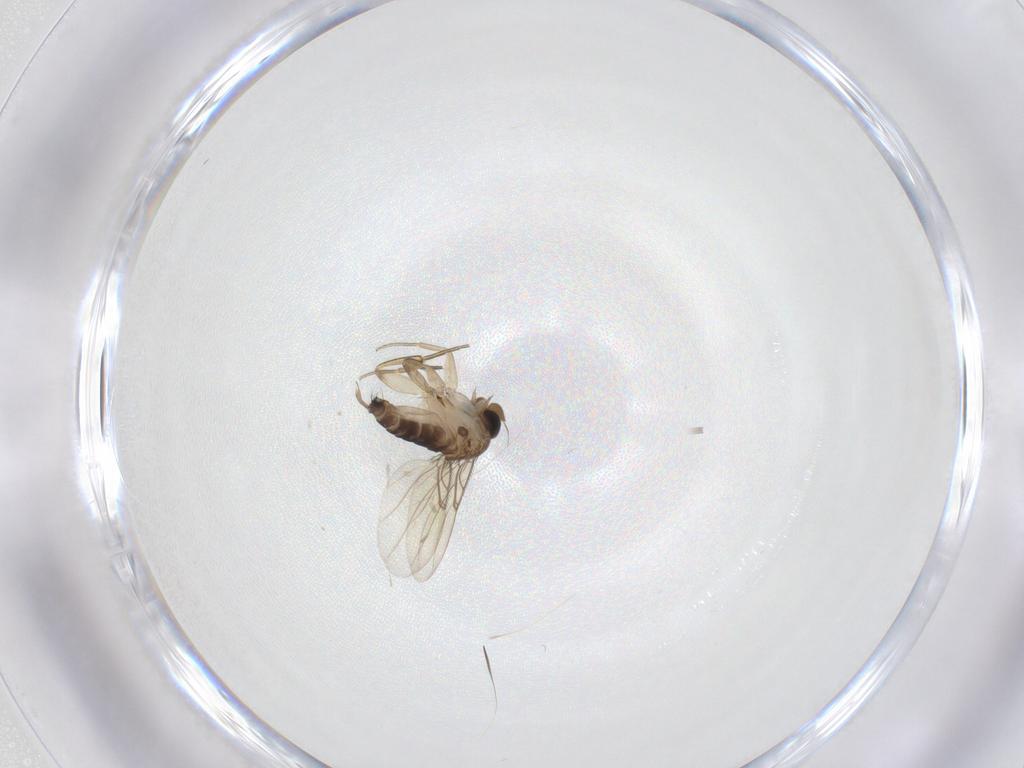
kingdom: Animalia
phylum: Arthropoda
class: Insecta
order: Diptera
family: Phoridae
